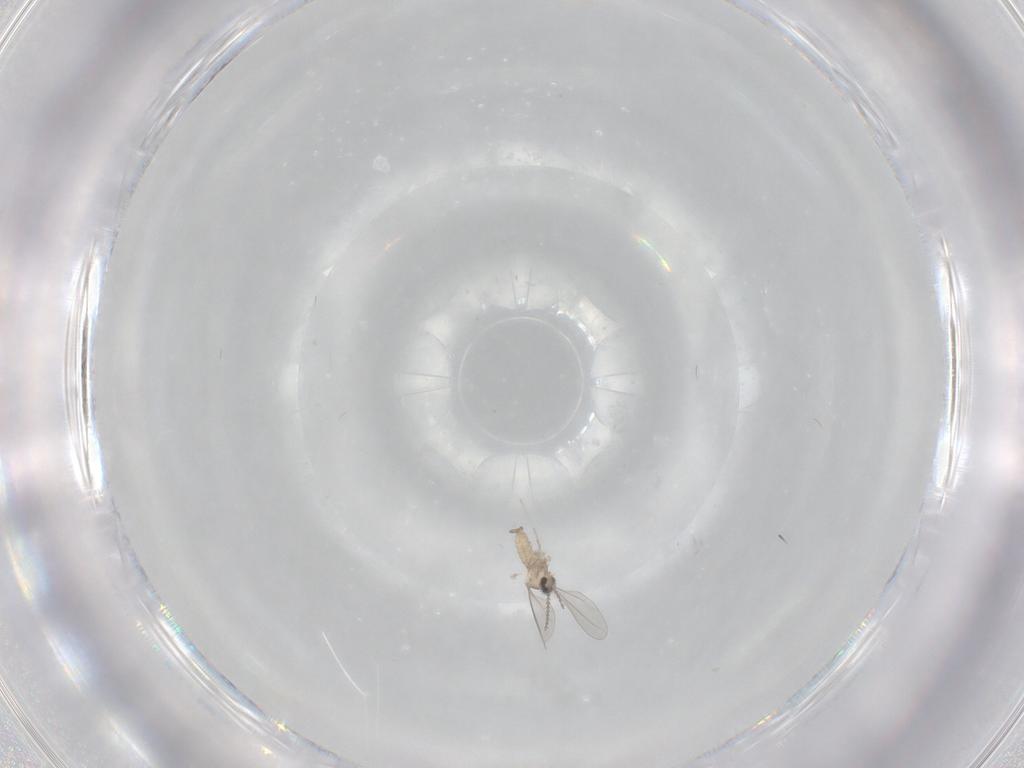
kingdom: Animalia
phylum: Arthropoda
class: Insecta
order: Diptera
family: Cecidomyiidae
